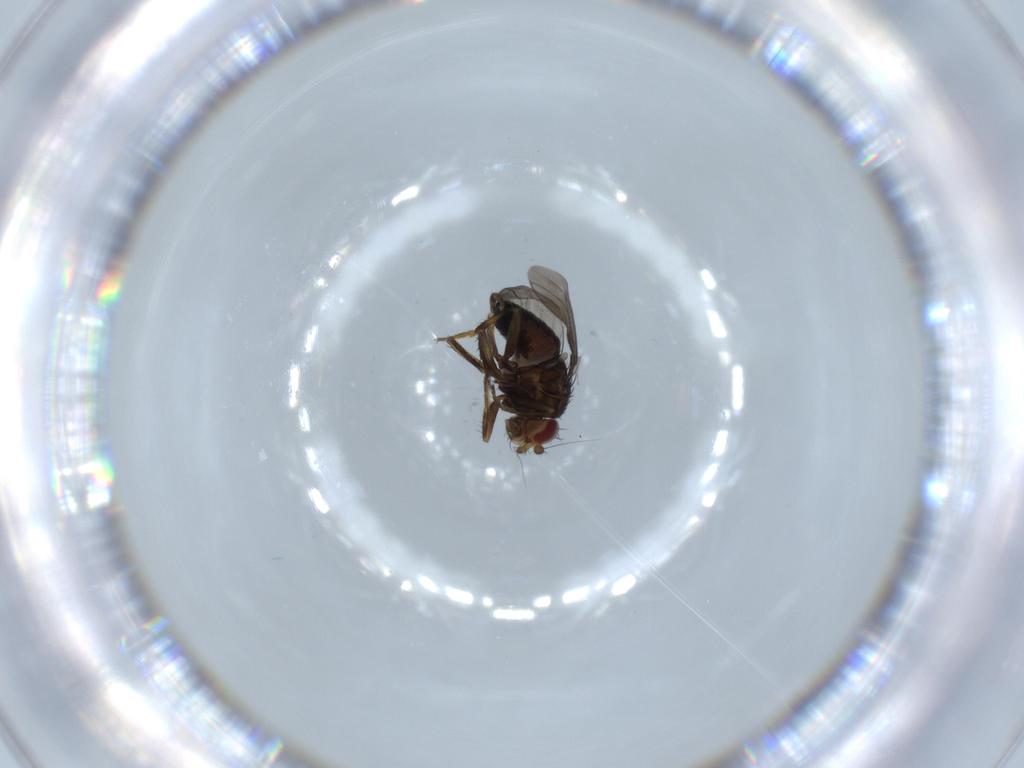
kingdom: Animalia
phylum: Arthropoda
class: Insecta
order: Diptera
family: Sphaeroceridae
